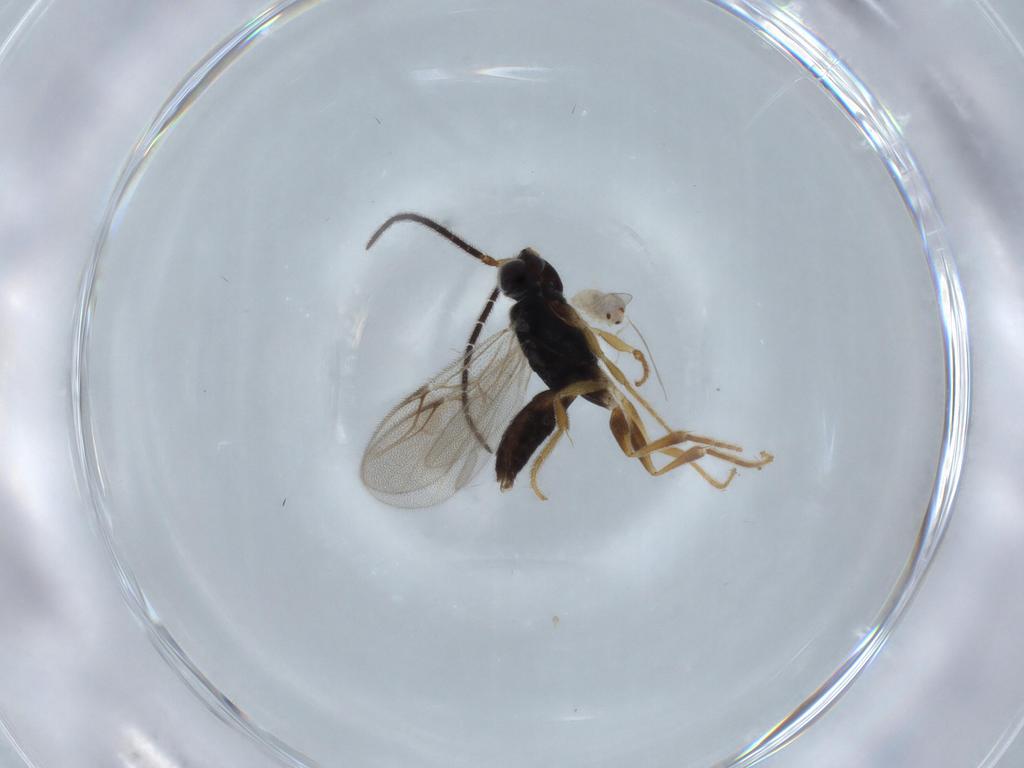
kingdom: Animalia
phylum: Arthropoda
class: Insecta
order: Hymenoptera
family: Dryinidae
